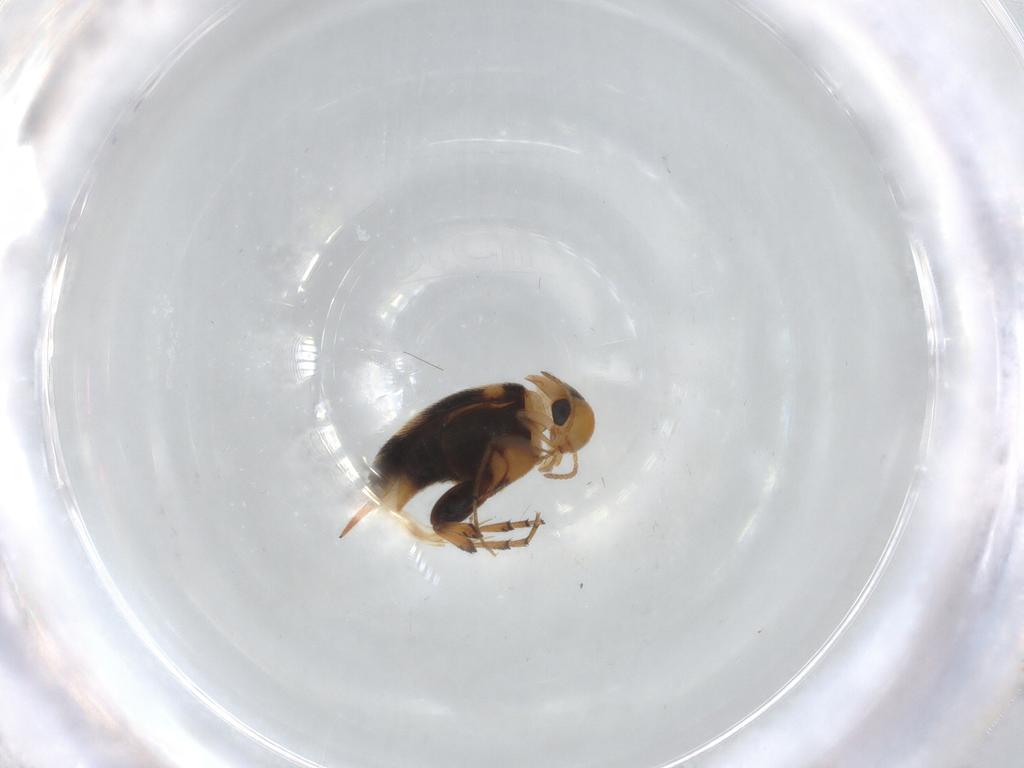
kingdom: Animalia
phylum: Arthropoda
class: Insecta
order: Coleoptera
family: Mordellidae
